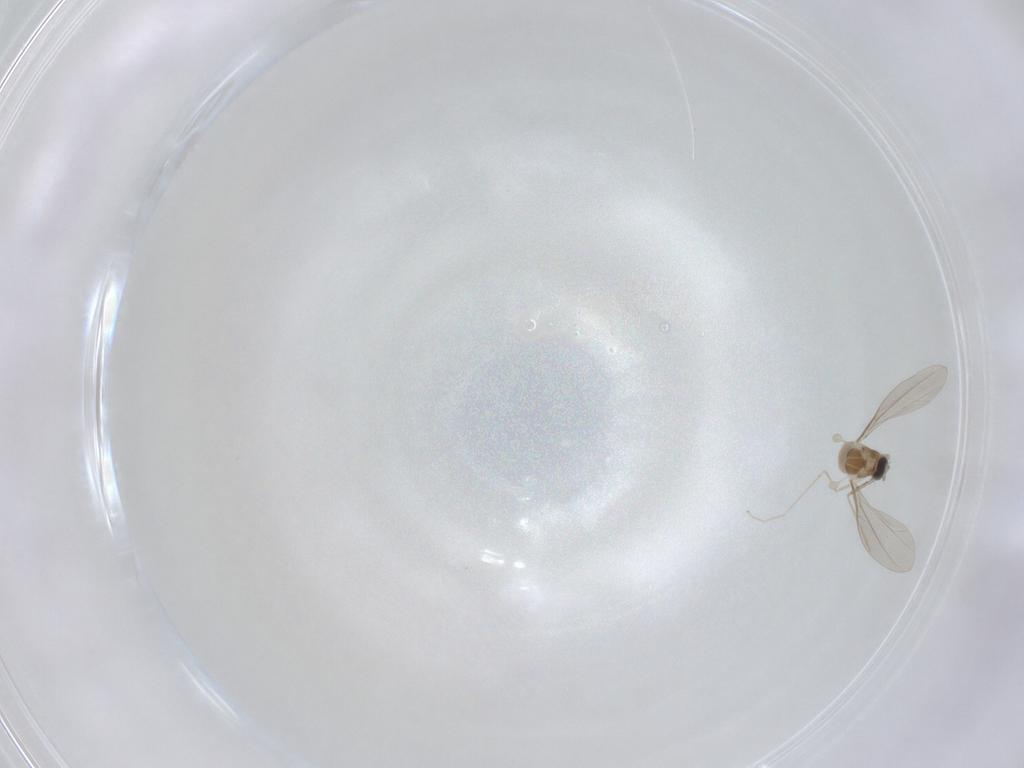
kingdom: Animalia
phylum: Arthropoda
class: Insecta
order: Diptera
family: Cecidomyiidae
